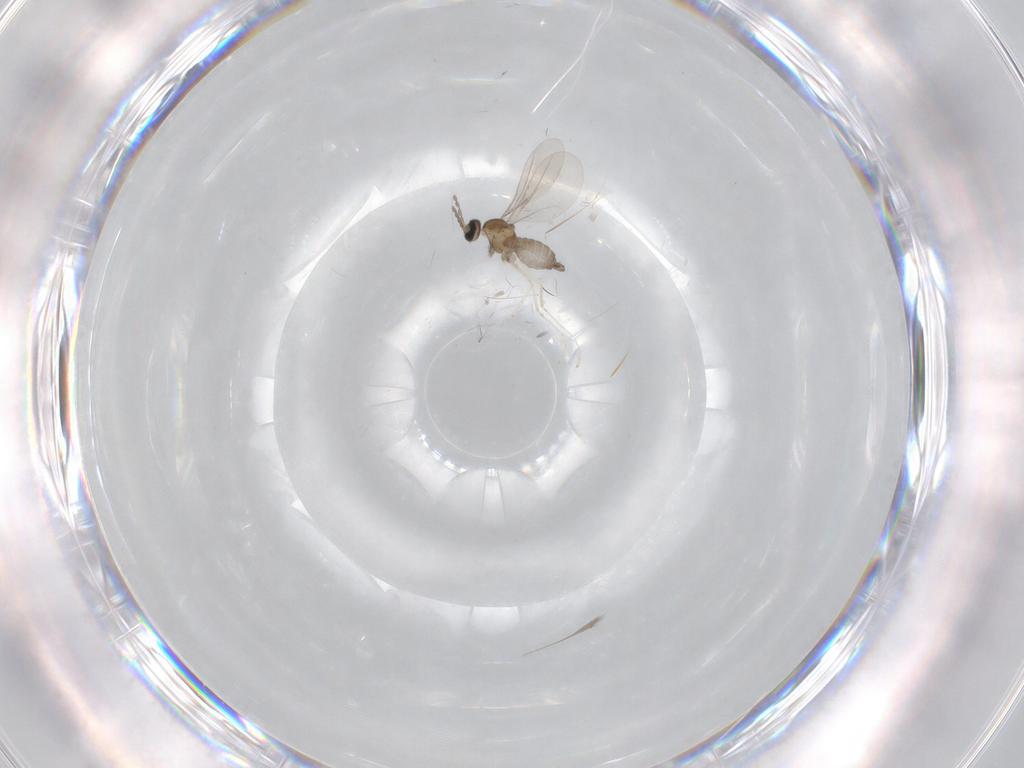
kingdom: Animalia
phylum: Arthropoda
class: Insecta
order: Diptera
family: Cecidomyiidae
